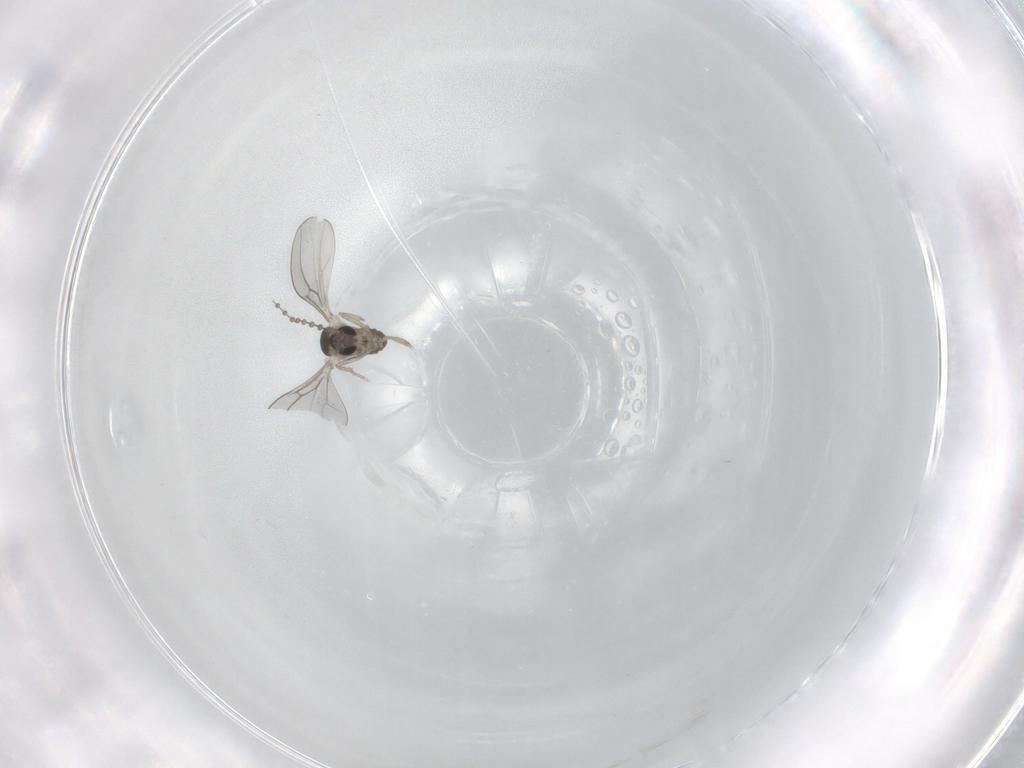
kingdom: Animalia
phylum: Arthropoda
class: Insecta
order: Diptera
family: Cecidomyiidae
